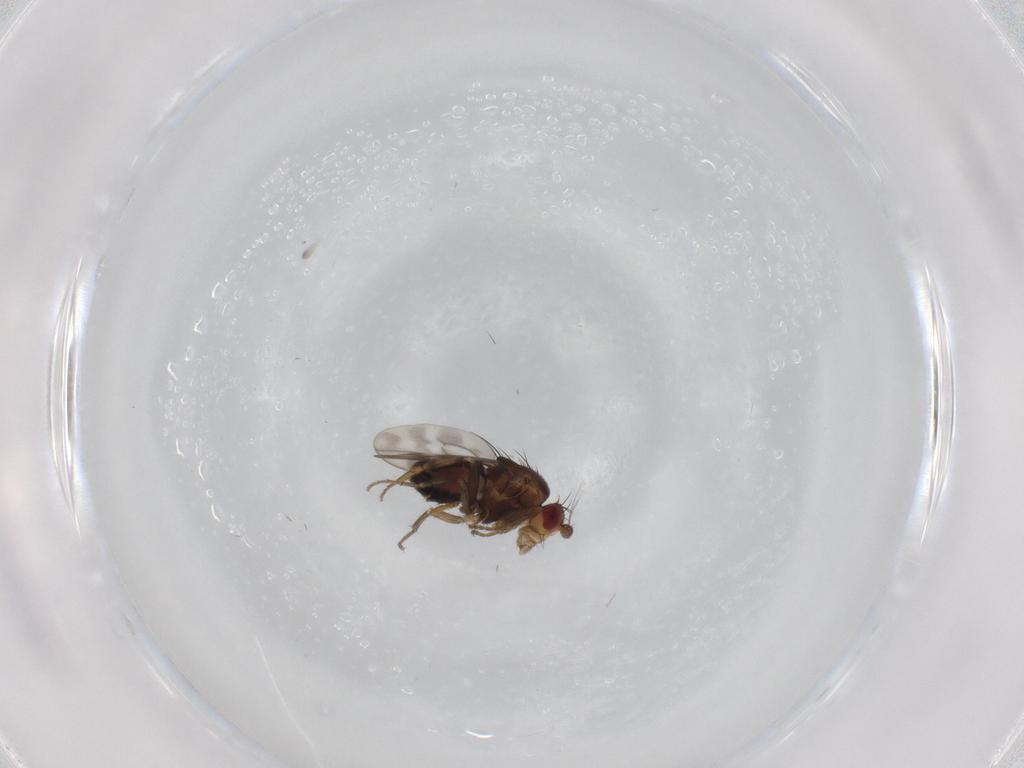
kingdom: Animalia
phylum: Arthropoda
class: Insecta
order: Diptera
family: Sphaeroceridae
